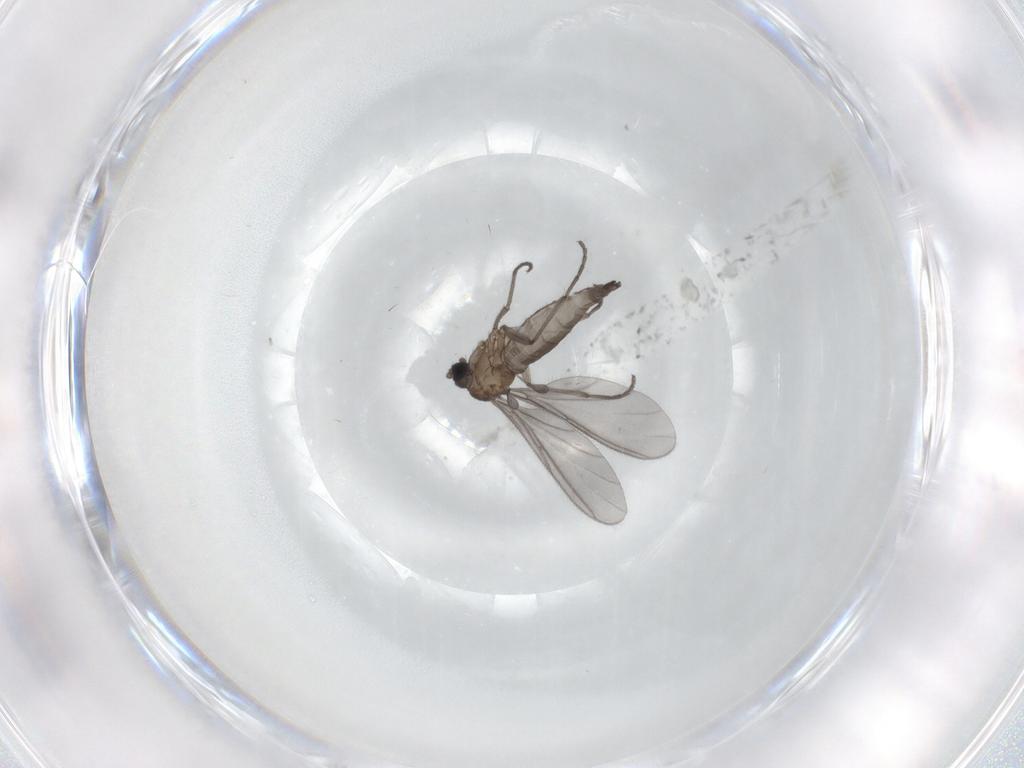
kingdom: Animalia
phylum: Arthropoda
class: Insecta
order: Diptera
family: Sciaridae
